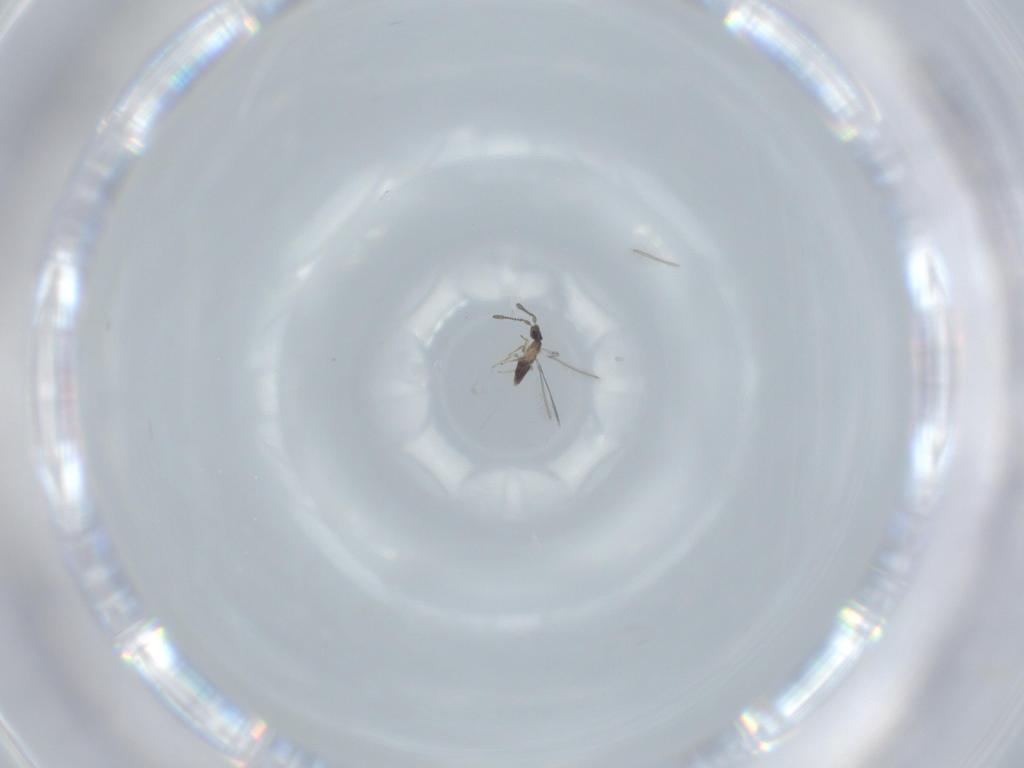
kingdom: Animalia
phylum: Arthropoda
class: Insecta
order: Hymenoptera
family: Mymaridae
